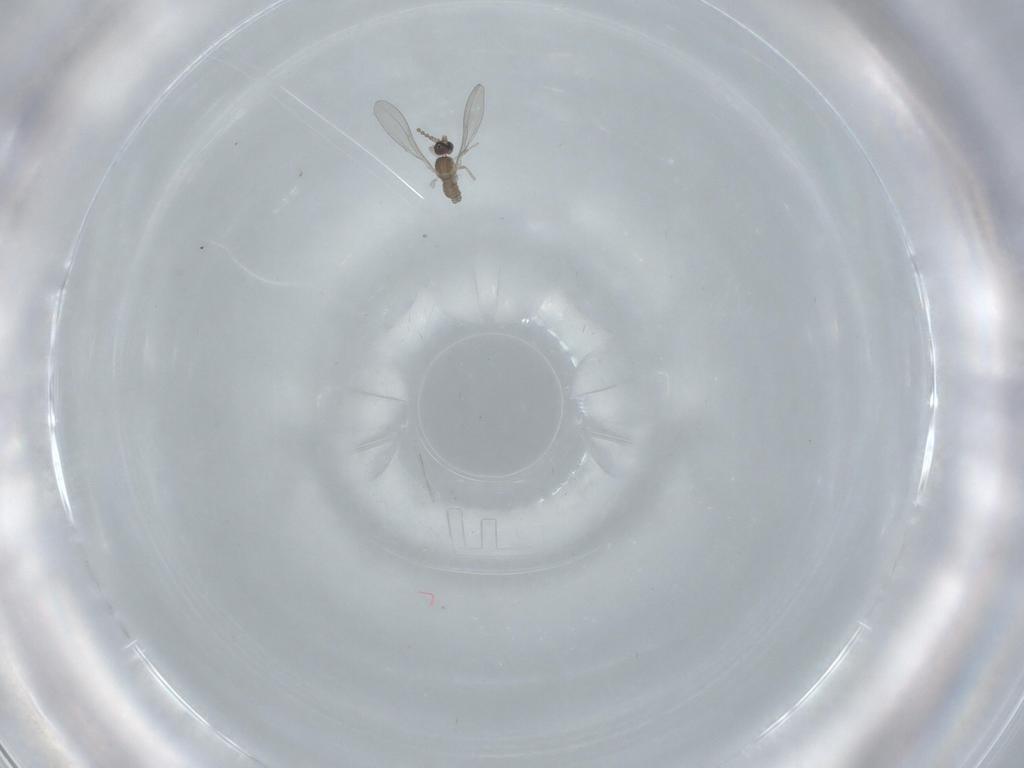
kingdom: Animalia
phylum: Arthropoda
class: Insecta
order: Diptera
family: Cecidomyiidae
